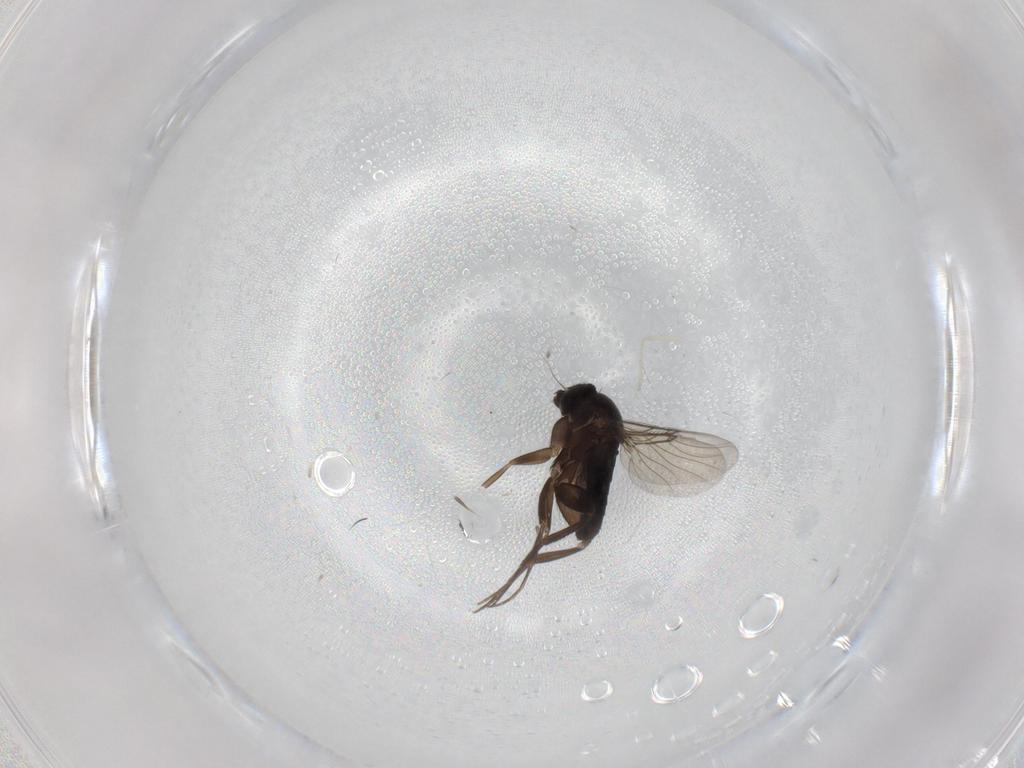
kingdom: Animalia
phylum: Arthropoda
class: Insecta
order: Diptera
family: Phoridae
